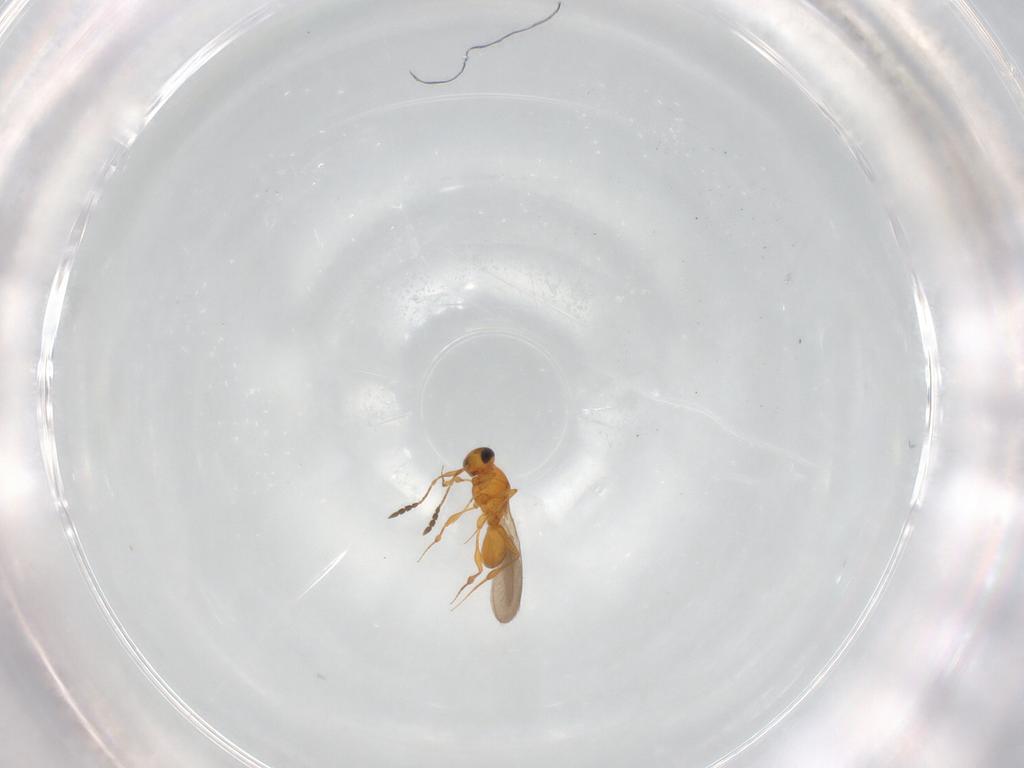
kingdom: Animalia
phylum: Arthropoda
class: Insecta
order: Hymenoptera
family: Platygastridae
